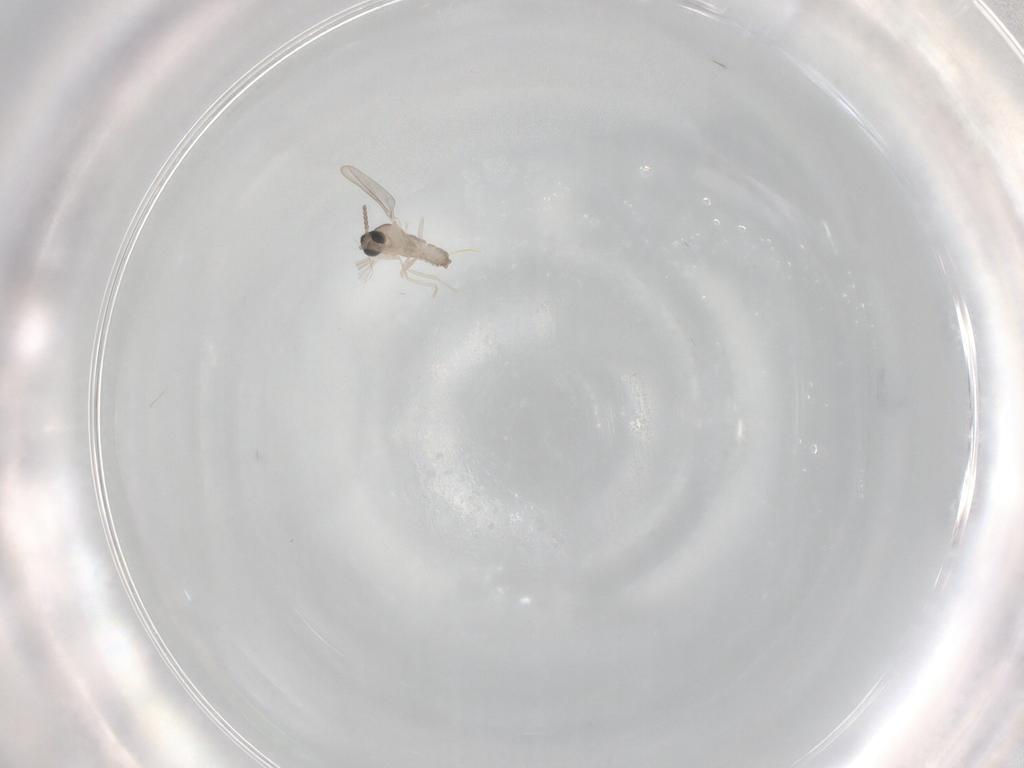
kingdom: Animalia
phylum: Arthropoda
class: Insecta
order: Diptera
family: Cecidomyiidae
